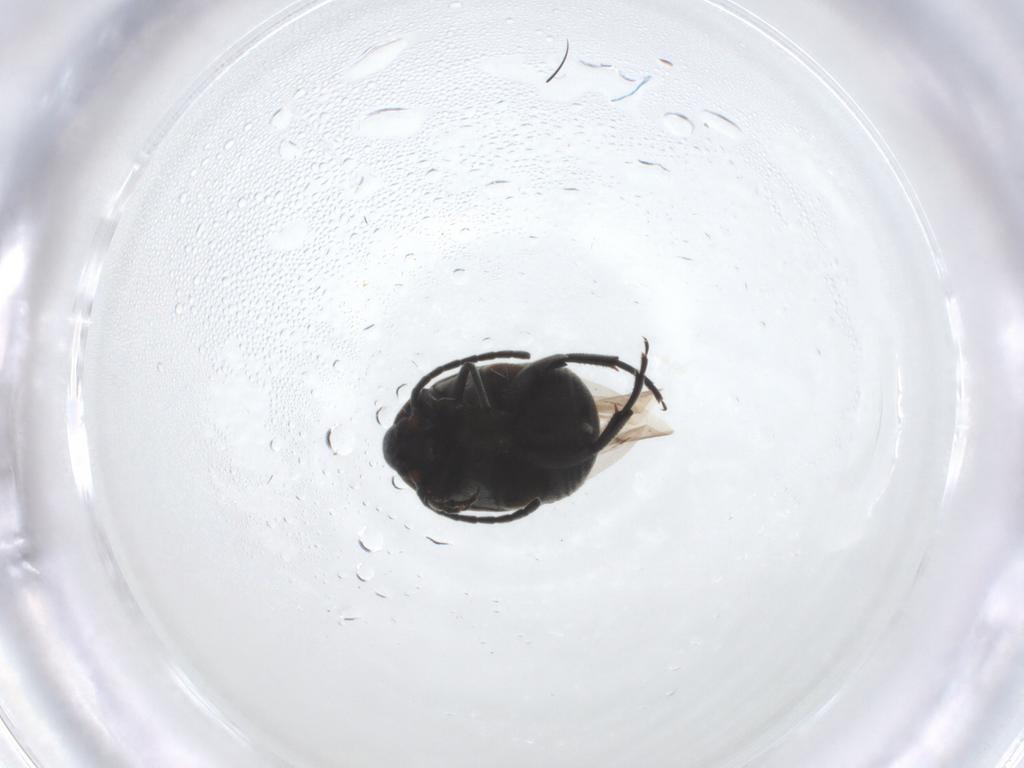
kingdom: Animalia
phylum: Arthropoda
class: Insecta
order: Coleoptera
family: Chrysomelidae
